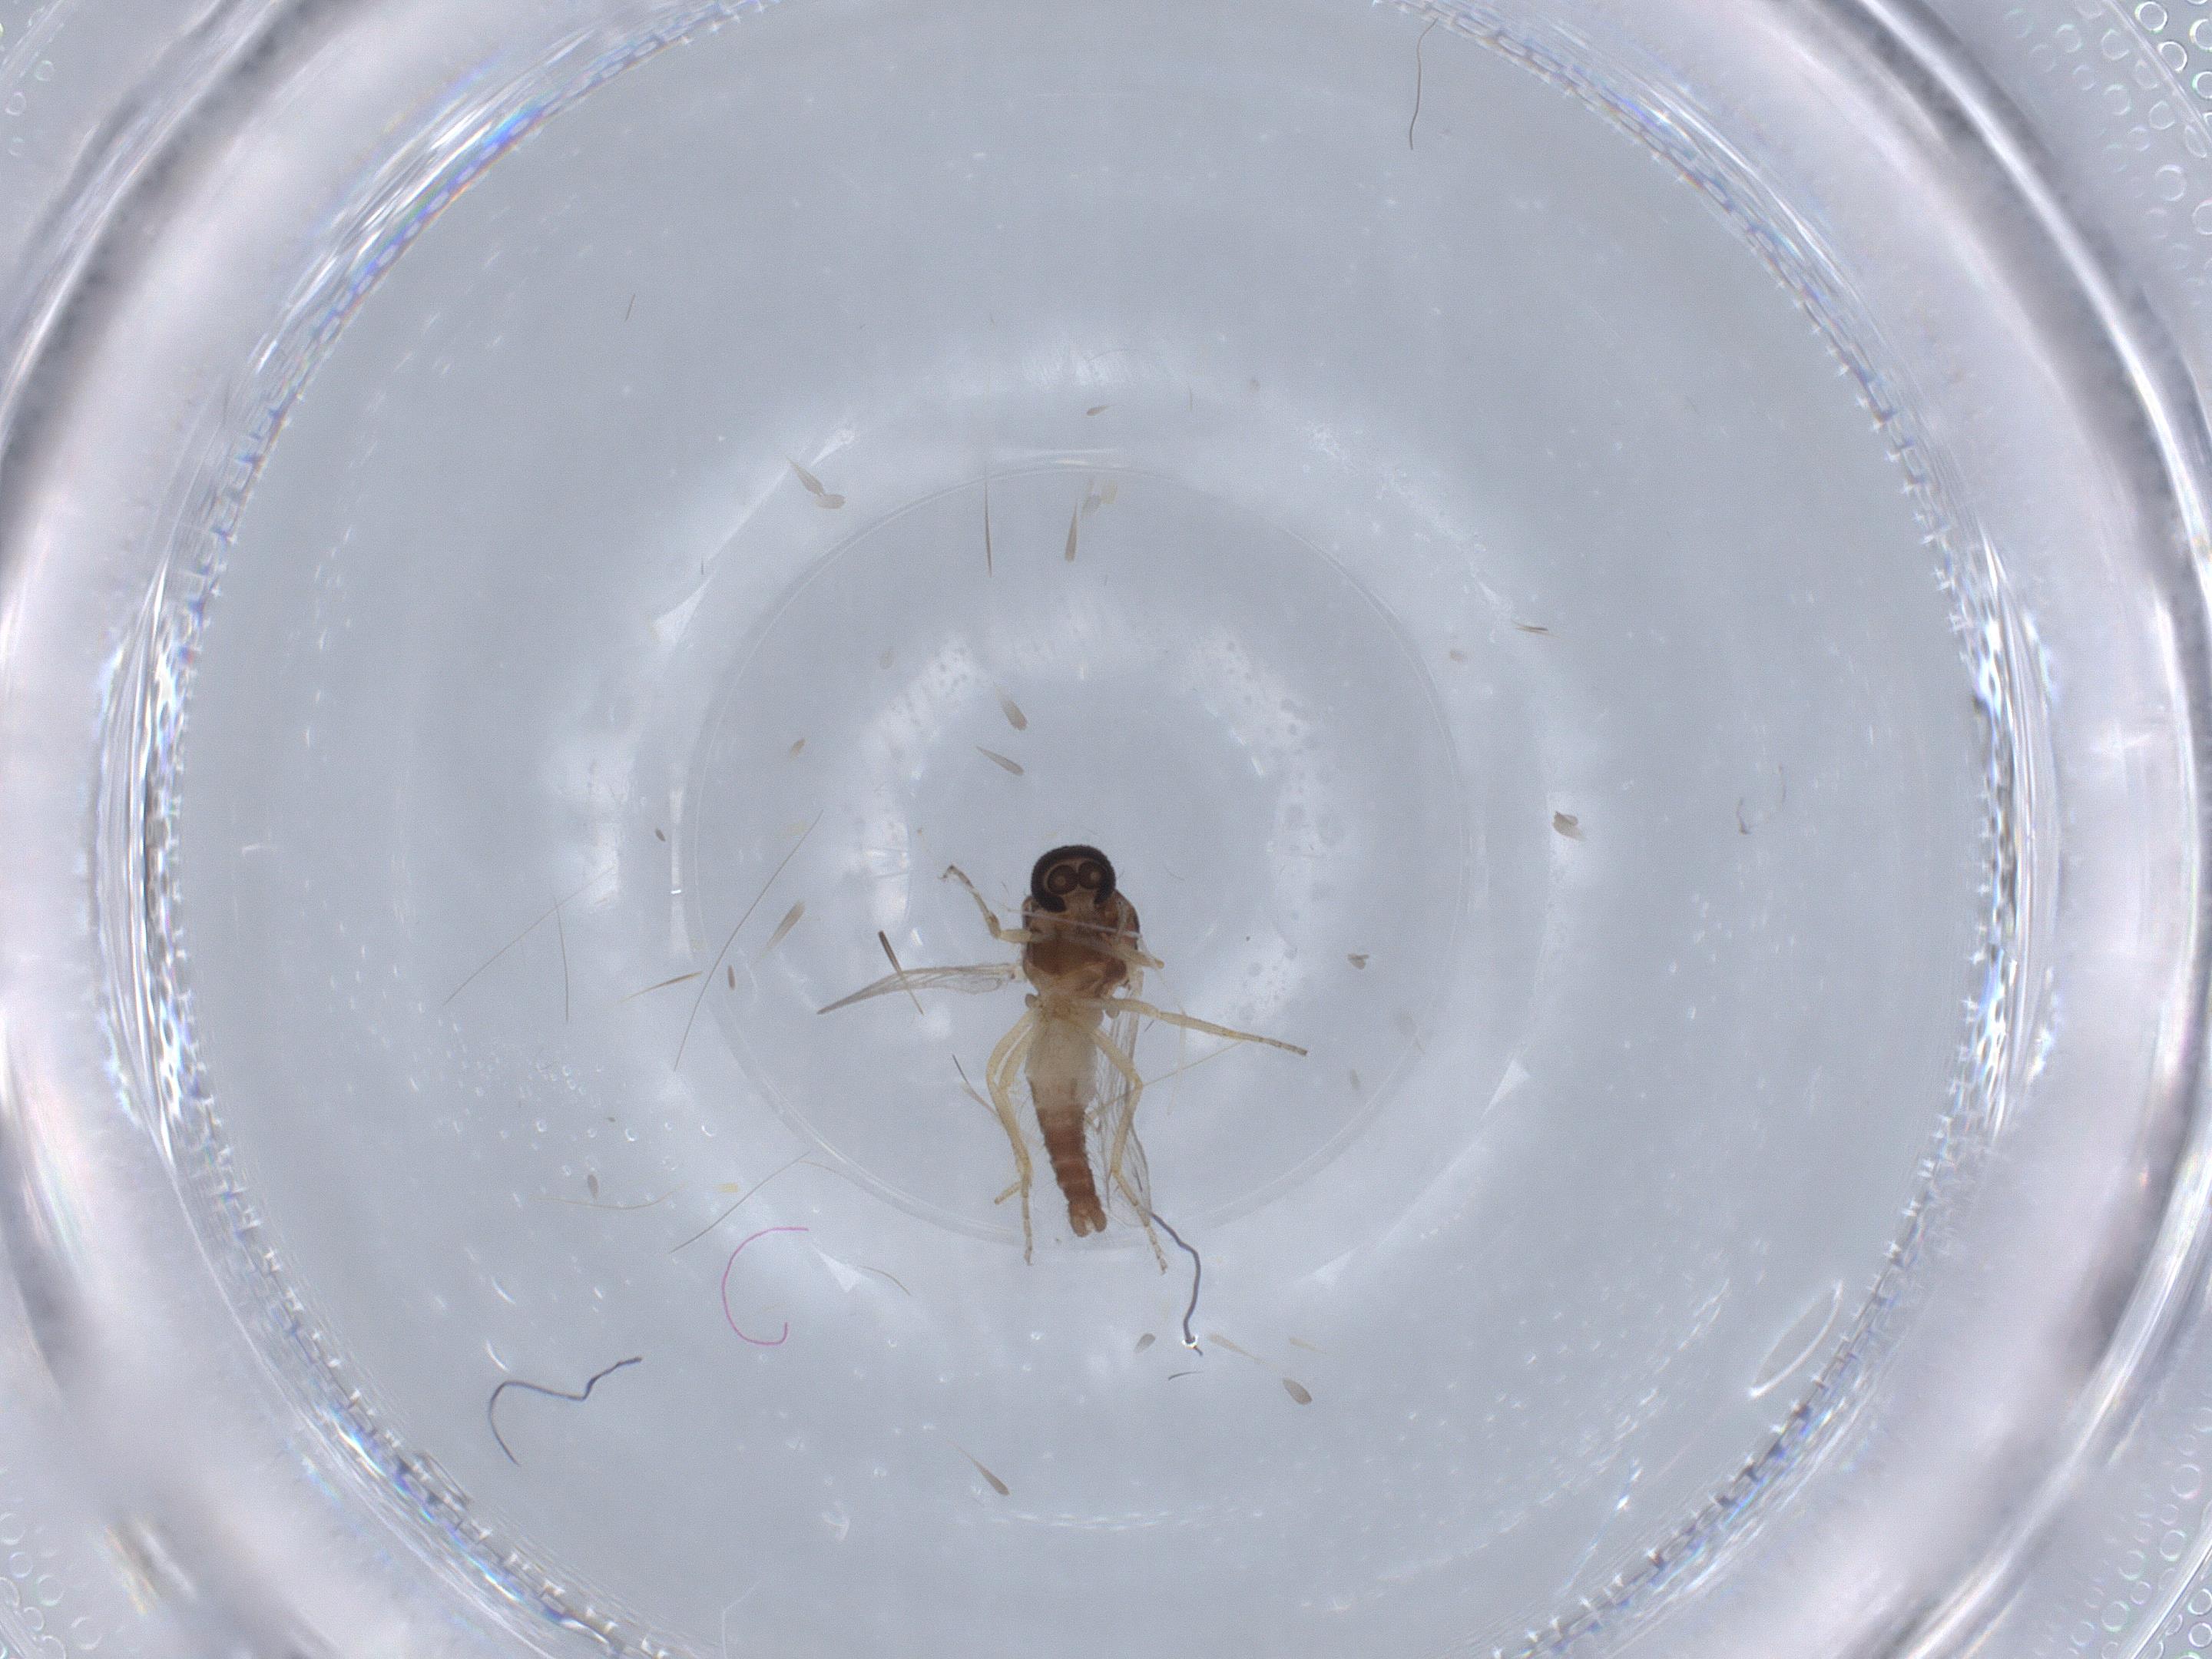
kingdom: Animalia
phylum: Arthropoda
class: Insecta
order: Diptera
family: Ceratopogonidae
